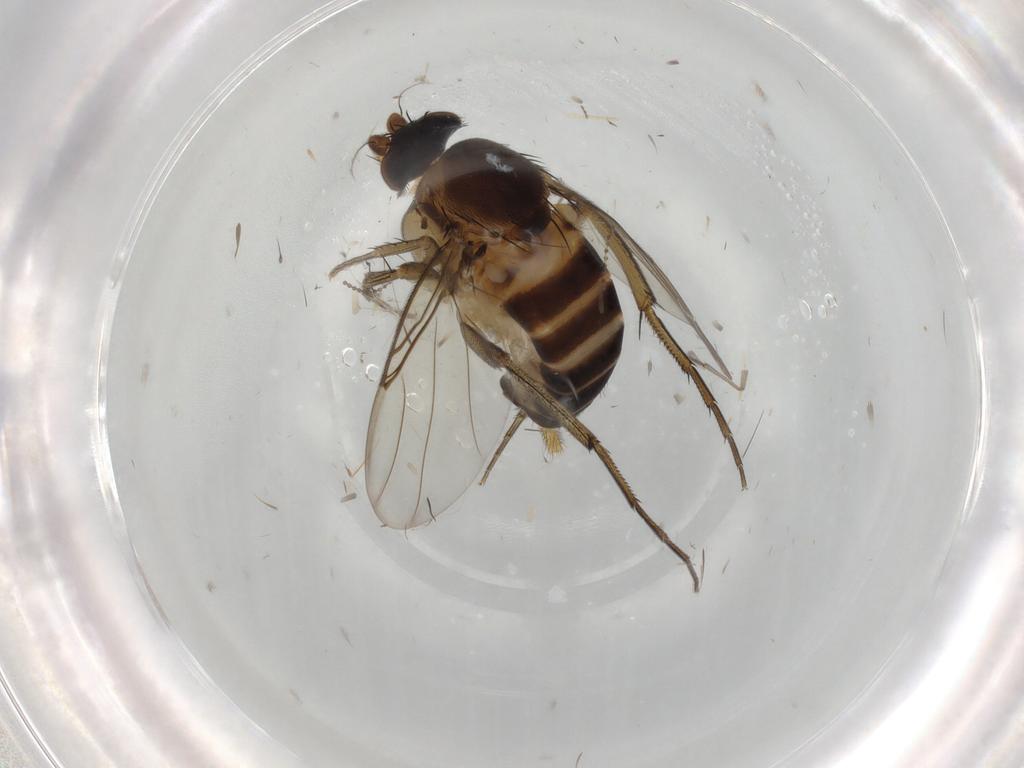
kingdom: Animalia
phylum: Arthropoda
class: Insecta
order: Diptera
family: Phoridae
